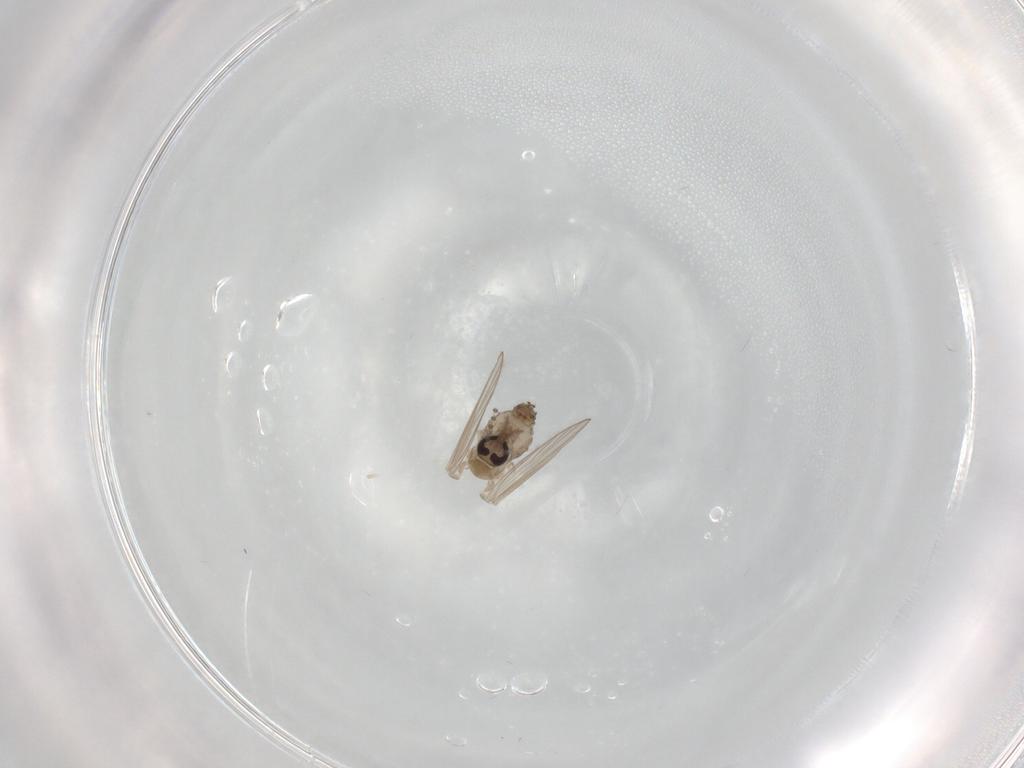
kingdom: Animalia
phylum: Arthropoda
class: Insecta
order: Diptera
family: Psychodidae
